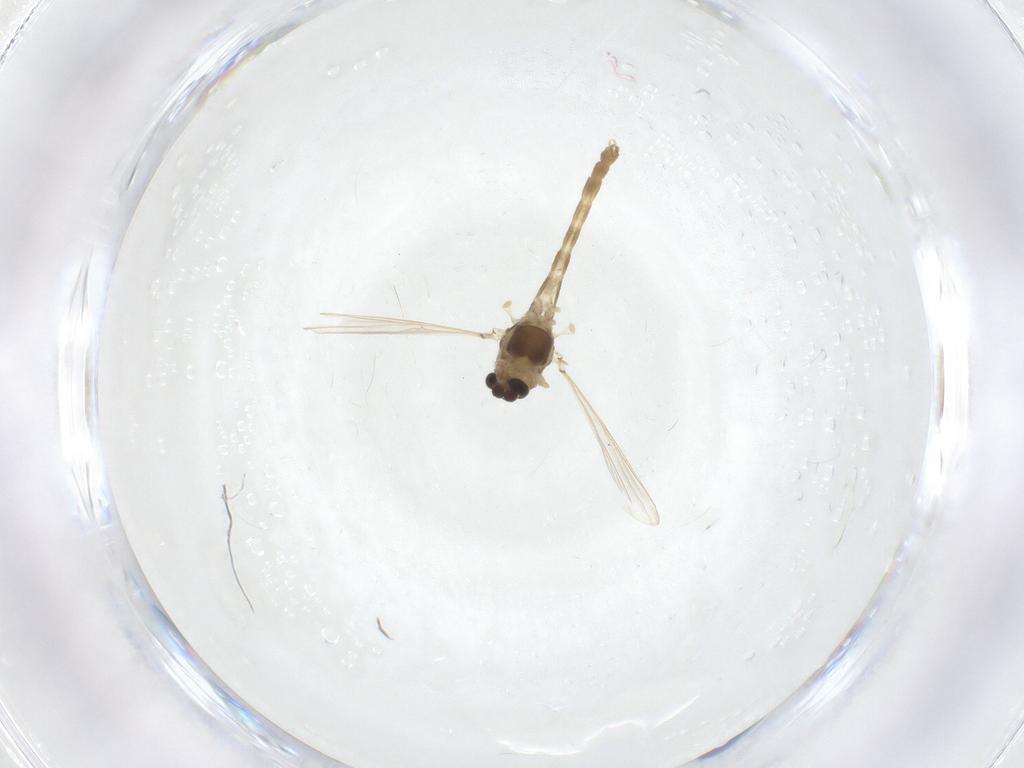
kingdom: Animalia
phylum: Arthropoda
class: Insecta
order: Diptera
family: Chironomidae
